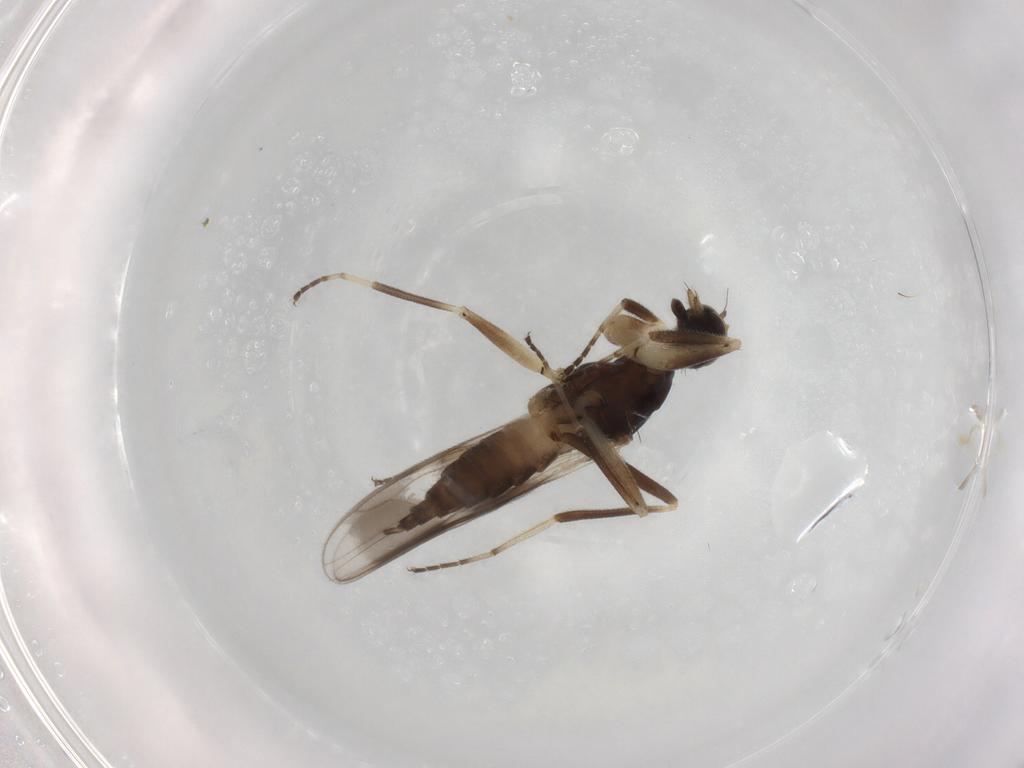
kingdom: Animalia
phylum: Arthropoda
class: Insecta
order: Diptera
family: Hybotidae
